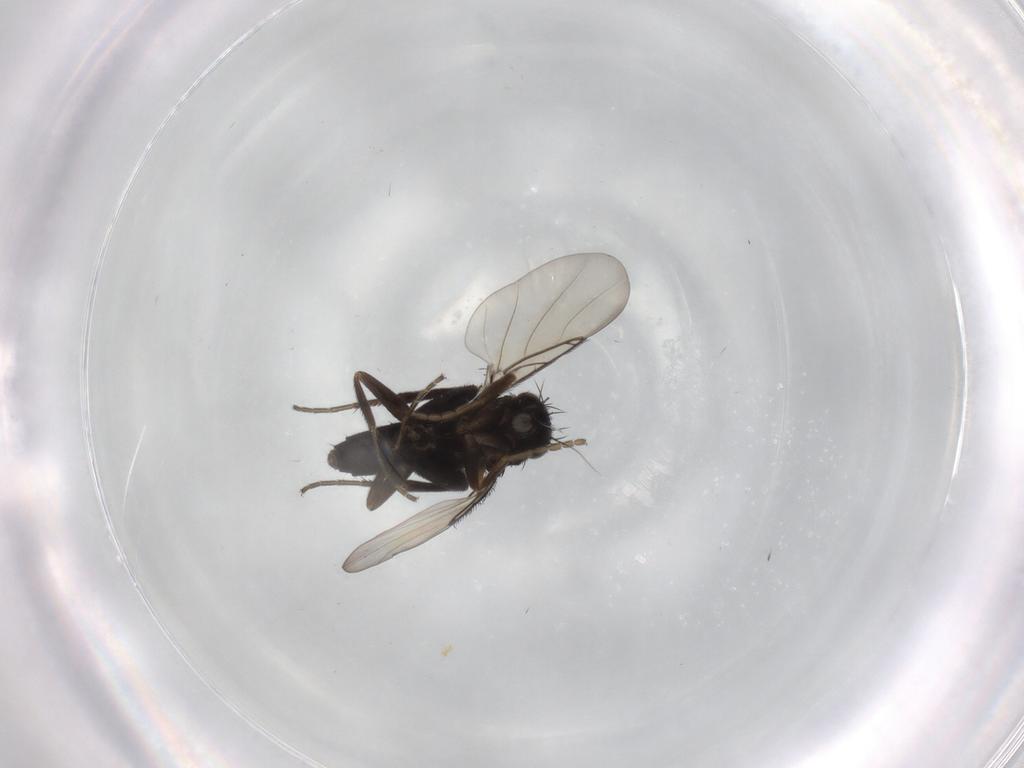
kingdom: Animalia
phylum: Arthropoda
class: Insecta
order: Diptera
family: Phoridae
